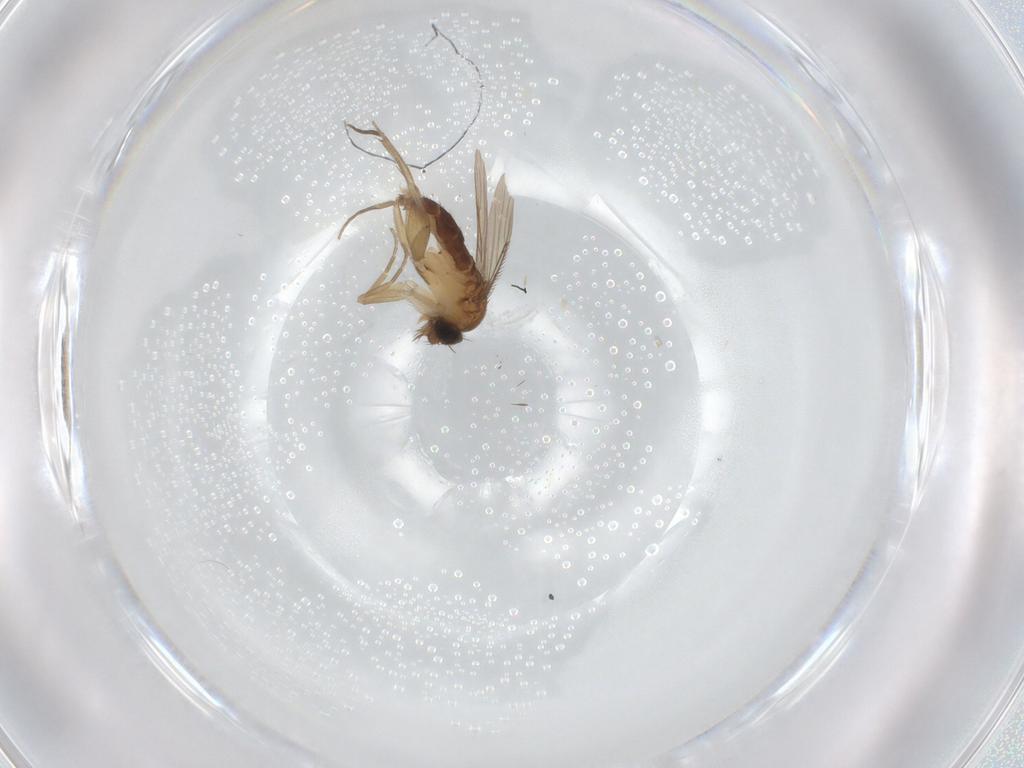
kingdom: Animalia
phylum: Arthropoda
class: Insecta
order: Diptera
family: Phoridae
